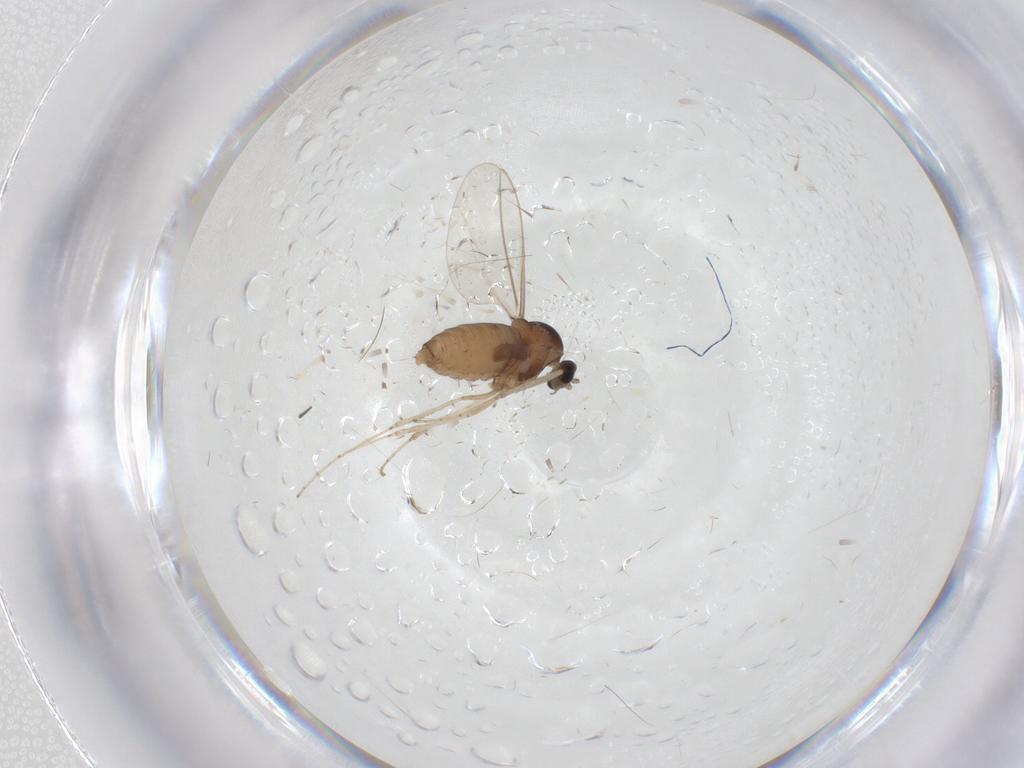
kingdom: Animalia
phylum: Arthropoda
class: Insecta
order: Diptera
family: Cecidomyiidae
